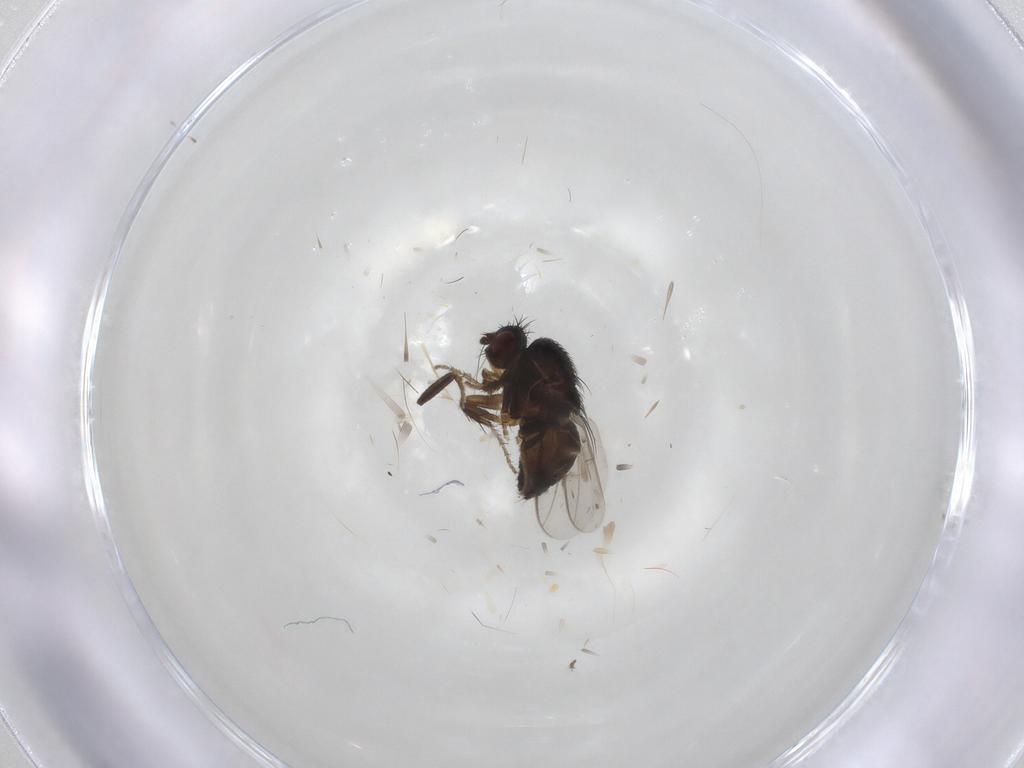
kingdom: Animalia
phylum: Arthropoda
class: Insecta
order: Diptera
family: Sphaeroceridae
